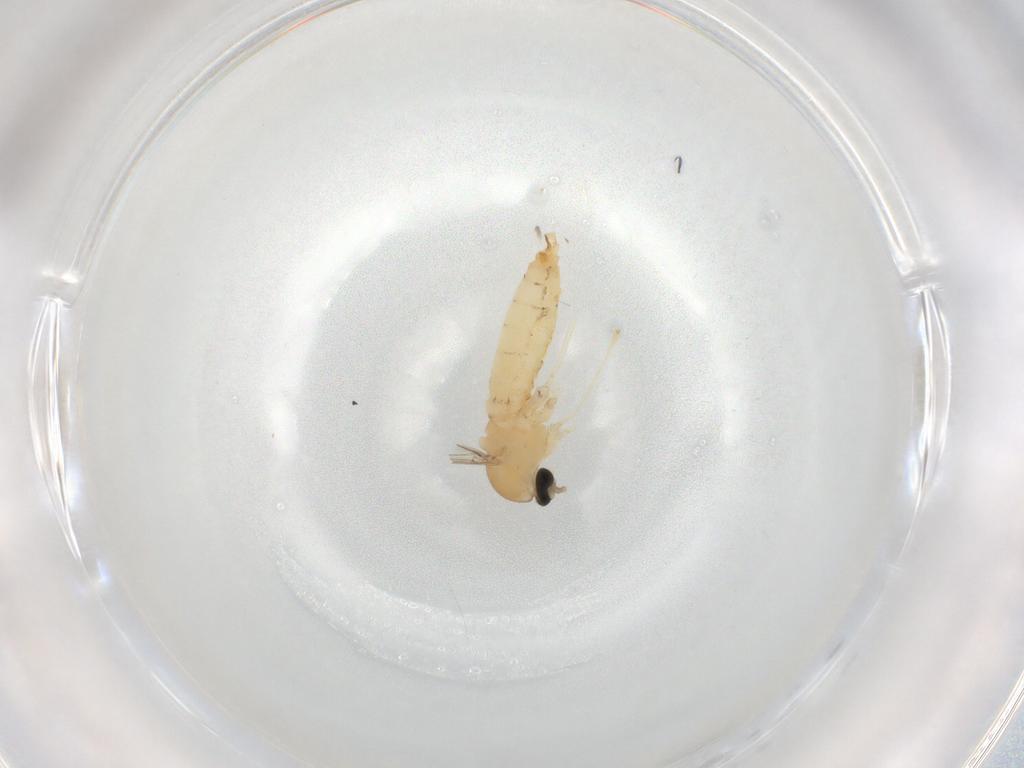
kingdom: Animalia
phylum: Arthropoda
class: Insecta
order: Diptera
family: Cecidomyiidae
